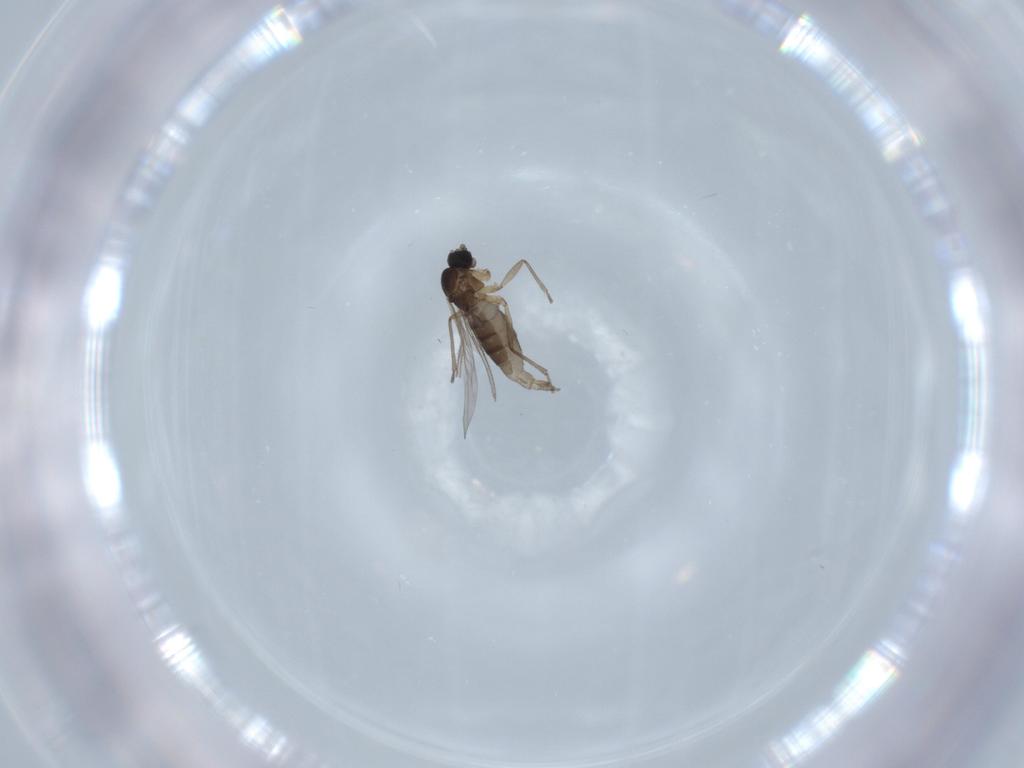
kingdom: Animalia
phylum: Arthropoda
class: Insecta
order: Diptera
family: Sciaridae
